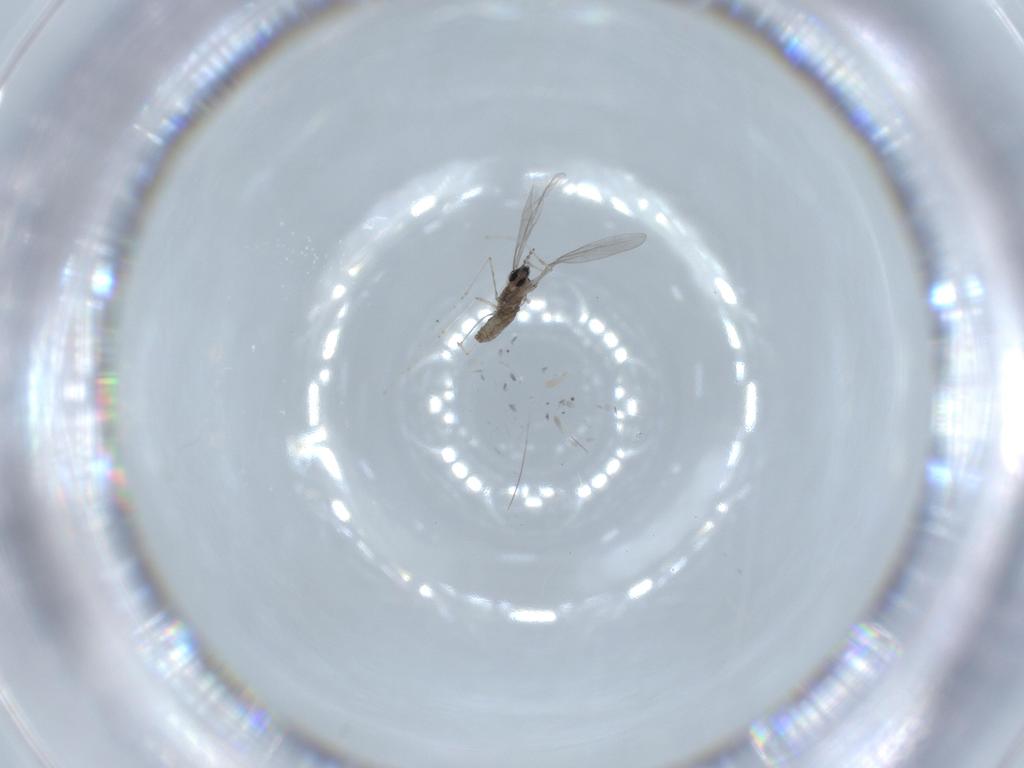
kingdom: Animalia
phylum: Arthropoda
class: Insecta
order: Diptera
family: Cecidomyiidae
